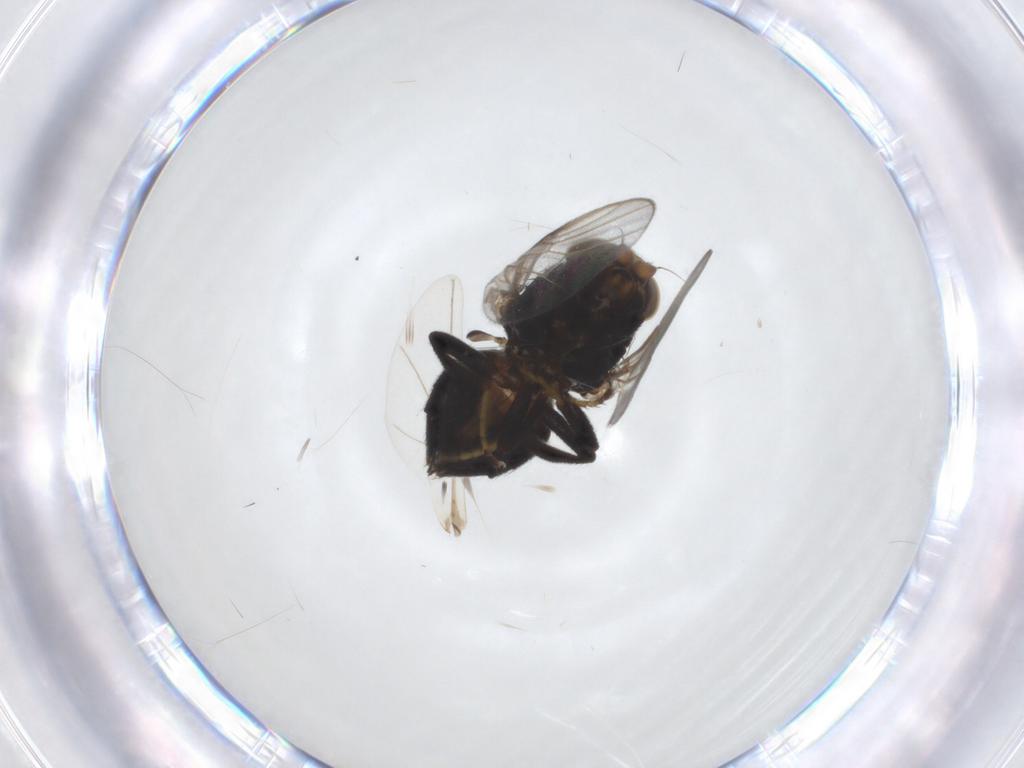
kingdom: Animalia
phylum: Arthropoda
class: Insecta
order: Diptera
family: Chloropidae
